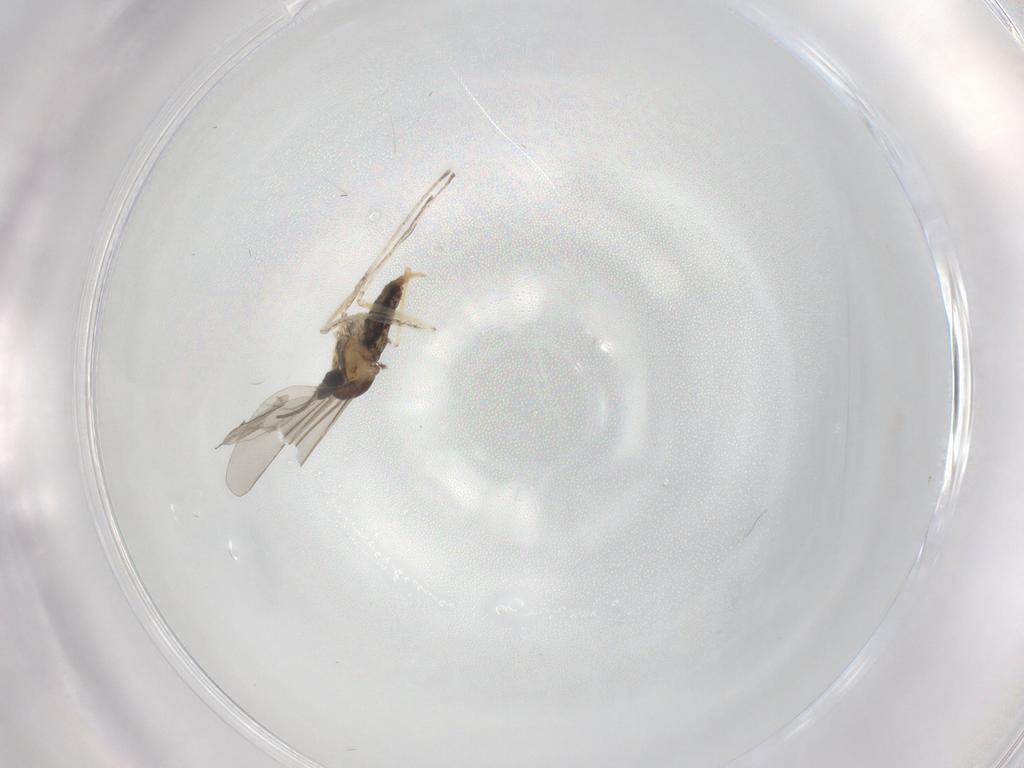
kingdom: Animalia
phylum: Arthropoda
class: Insecta
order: Diptera
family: Cecidomyiidae
